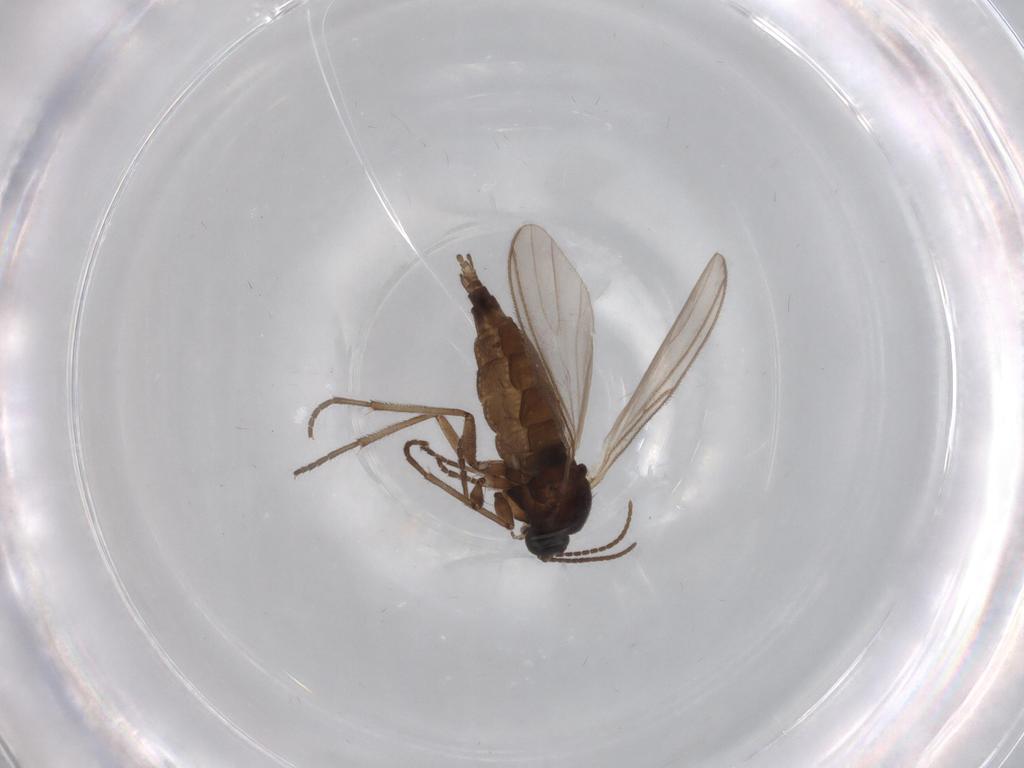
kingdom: Animalia
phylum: Arthropoda
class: Insecta
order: Diptera
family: Sciaridae
